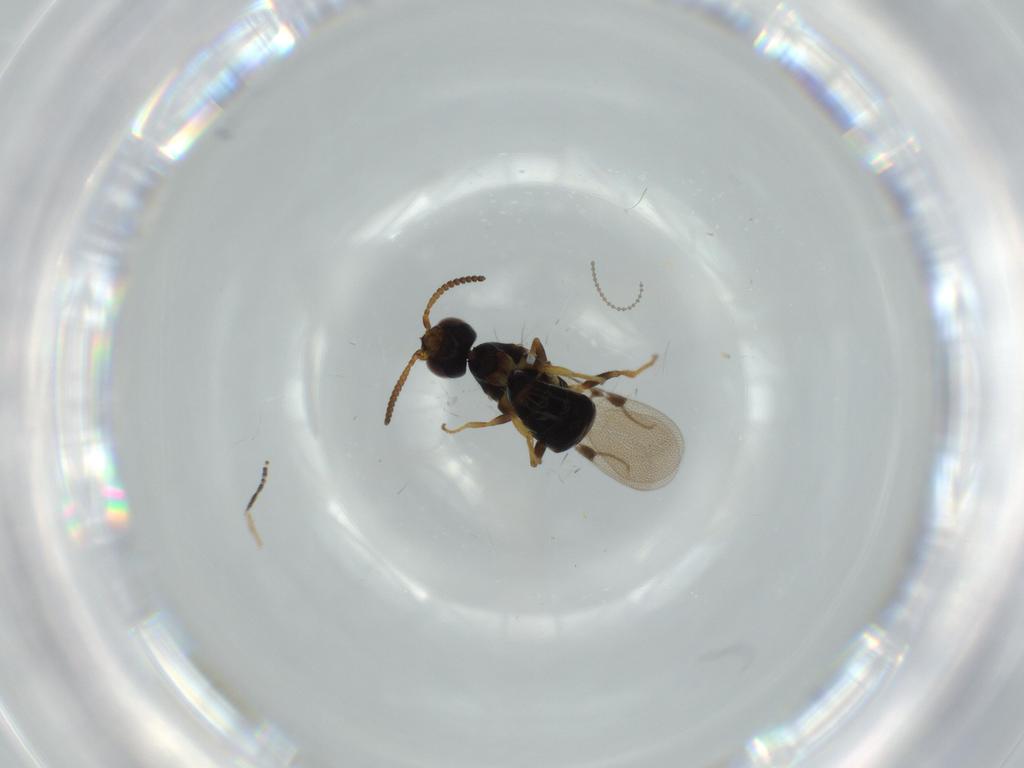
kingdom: Animalia
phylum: Arthropoda
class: Insecta
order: Hymenoptera
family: Bethylidae
